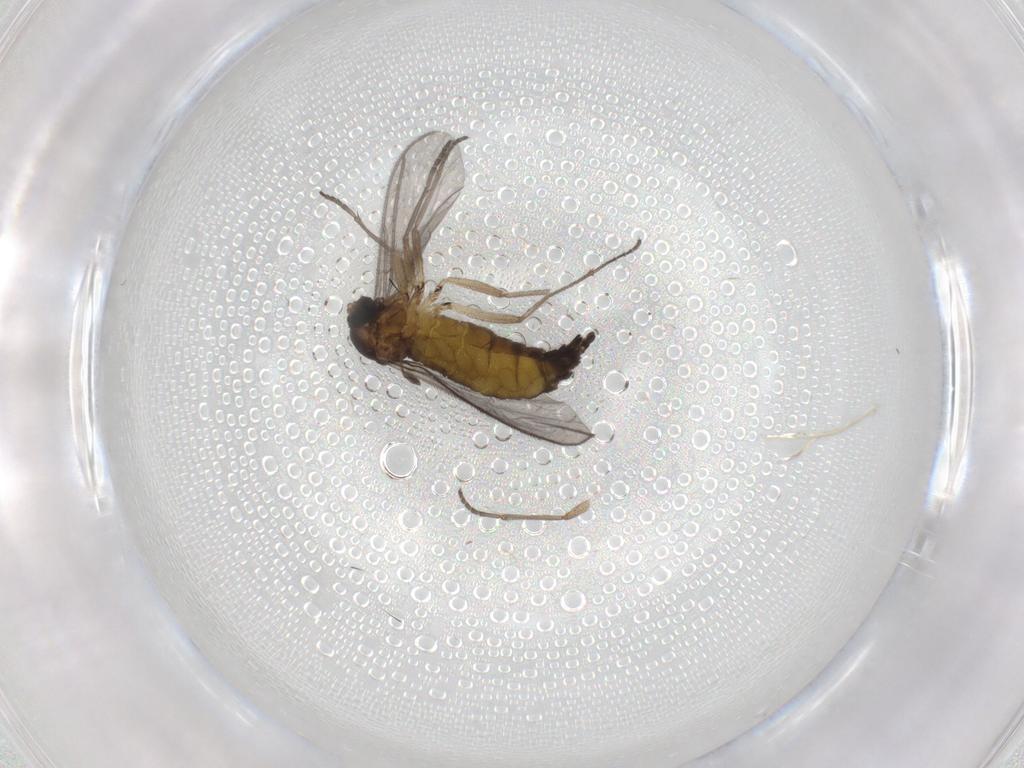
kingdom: Animalia
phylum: Arthropoda
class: Insecta
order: Diptera
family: Sciaridae
